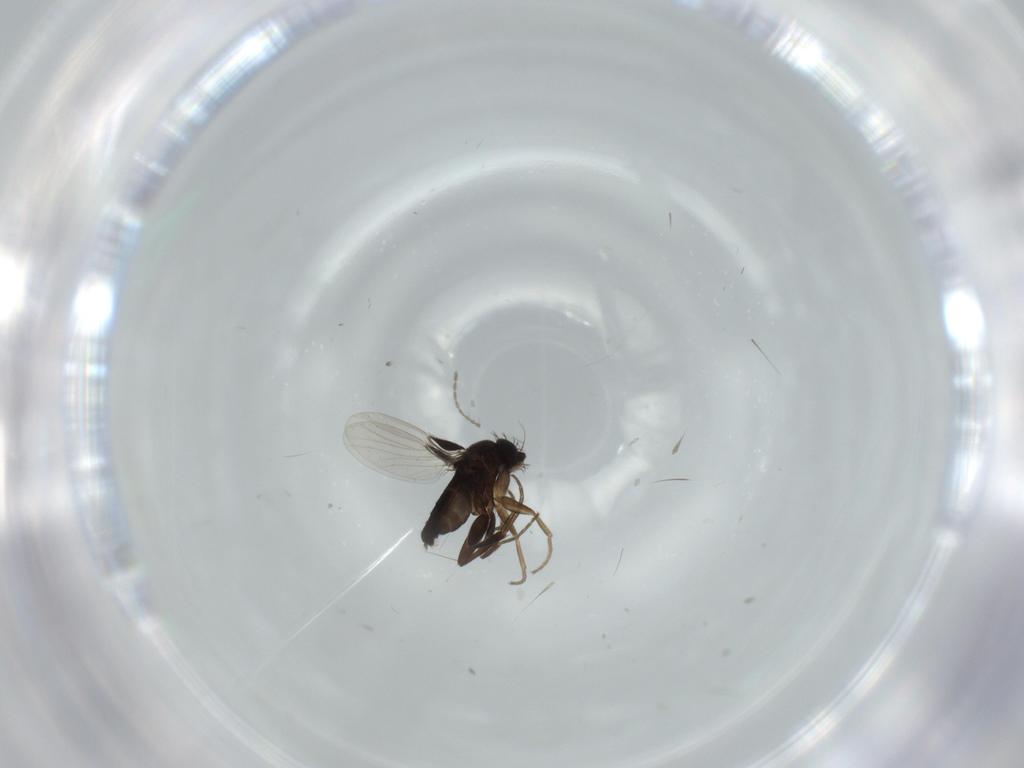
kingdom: Animalia
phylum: Arthropoda
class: Insecta
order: Diptera
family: Ceratopogonidae
